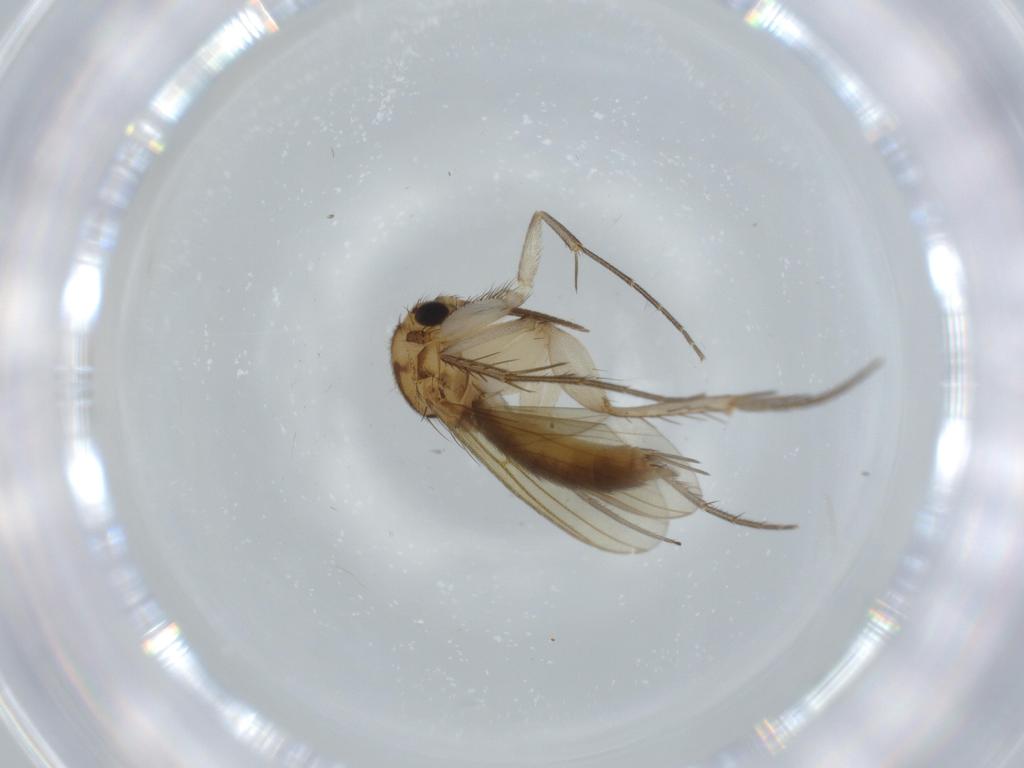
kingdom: Animalia
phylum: Arthropoda
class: Insecta
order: Diptera
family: Mycetophilidae
